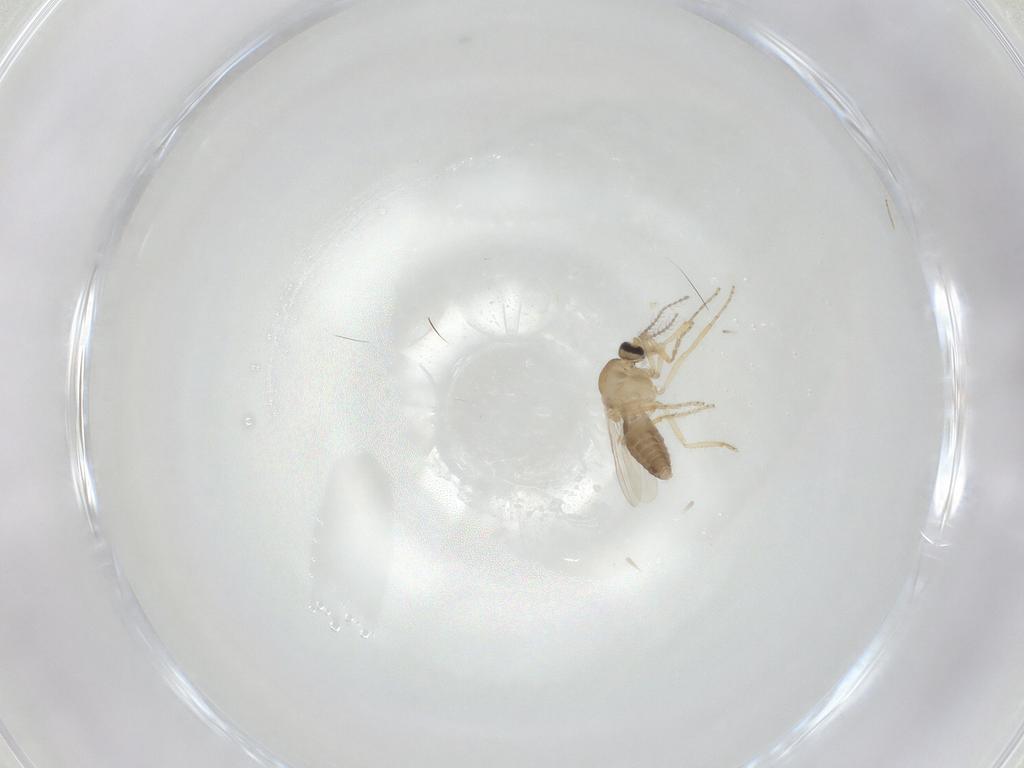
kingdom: Animalia
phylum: Arthropoda
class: Insecta
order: Diptera
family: Ceratopogonidae
